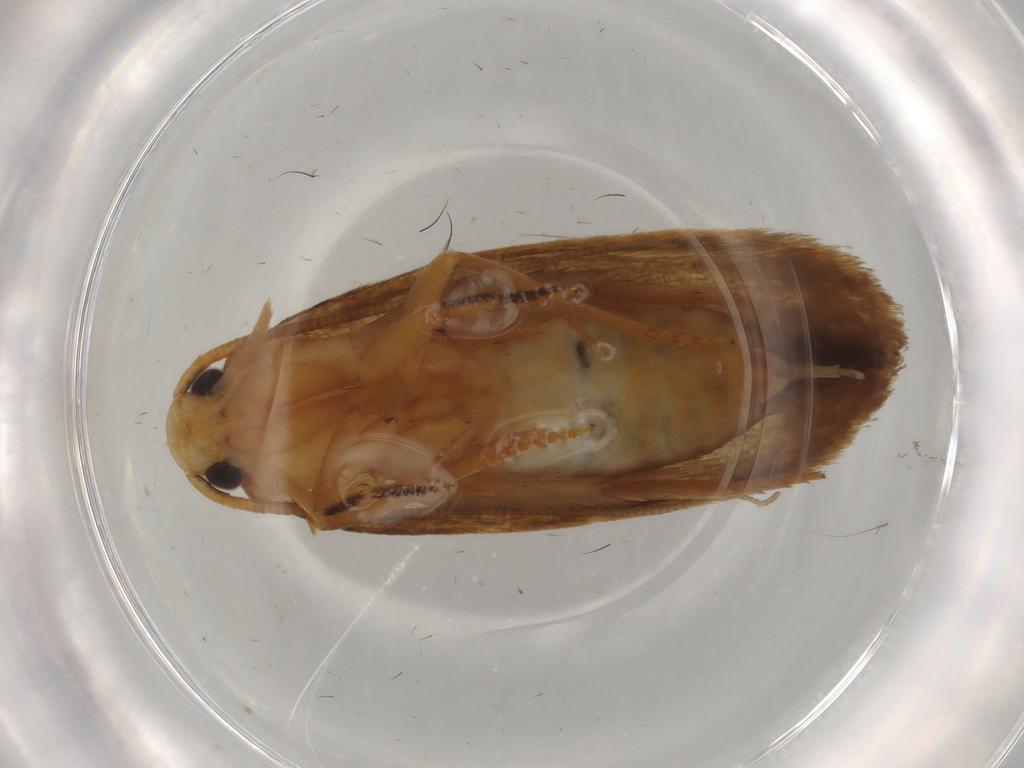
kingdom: Animalia
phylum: Arthropoda
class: Insecta
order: Lepidoptera
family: Tineidae
